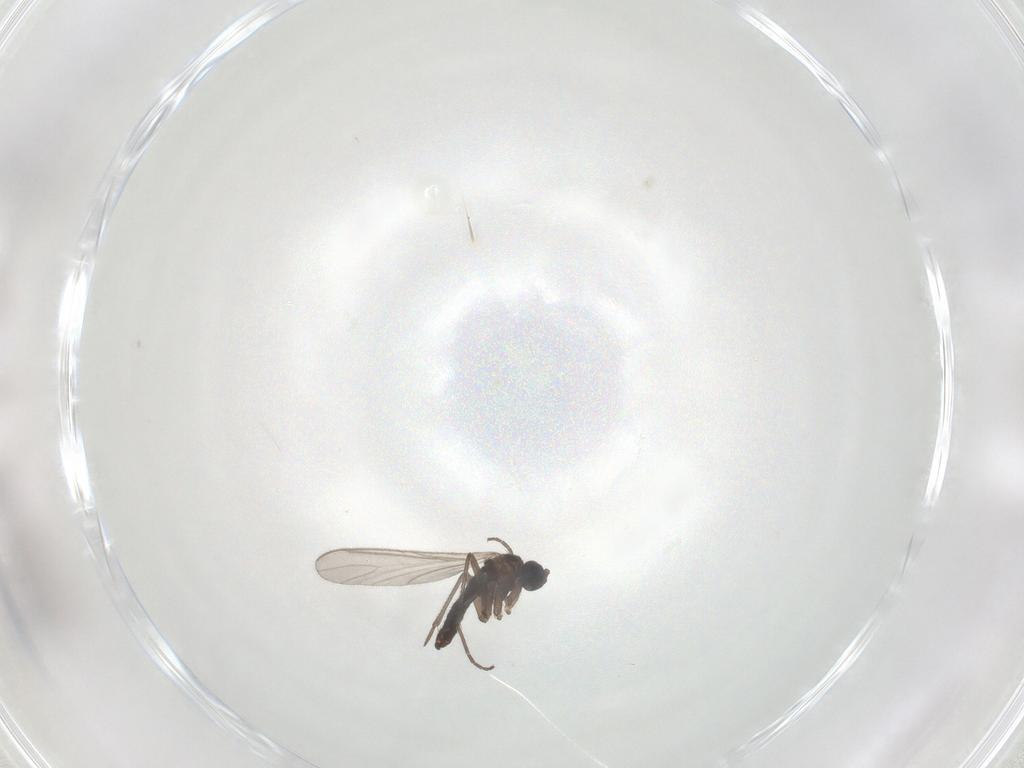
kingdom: Animalia
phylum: Arthropoda
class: Insecta
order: Diptera
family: Sciaridae
